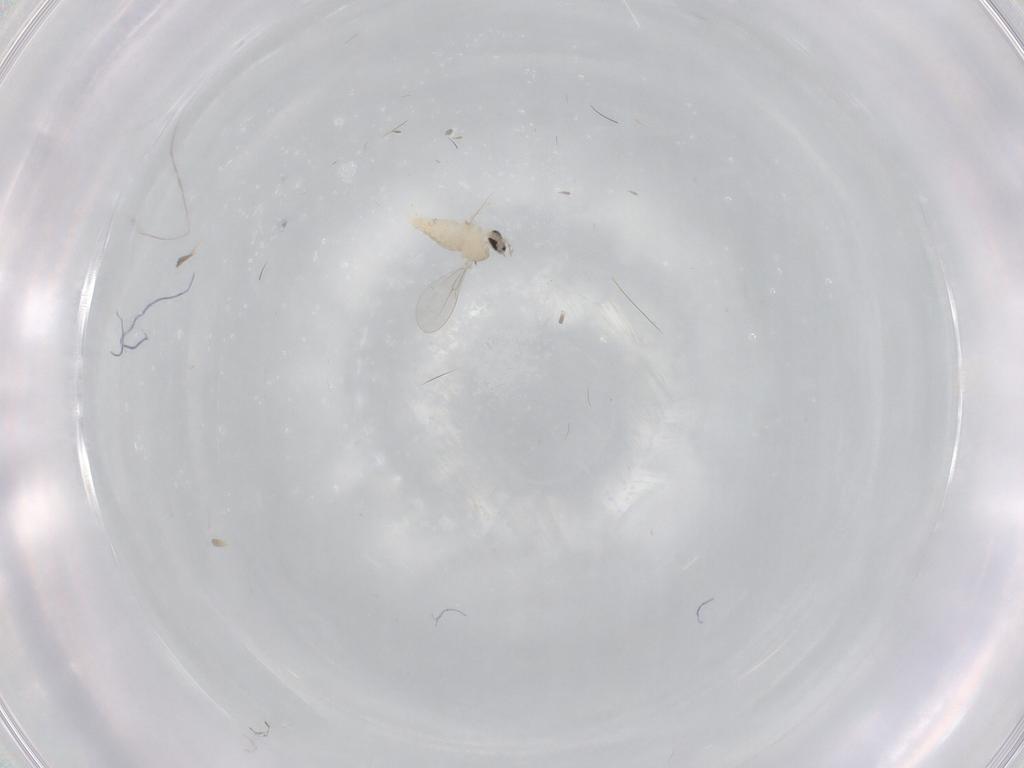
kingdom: Animalia
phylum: Arthropoda
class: Insecta
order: Diptera
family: Cecidomyiidae
